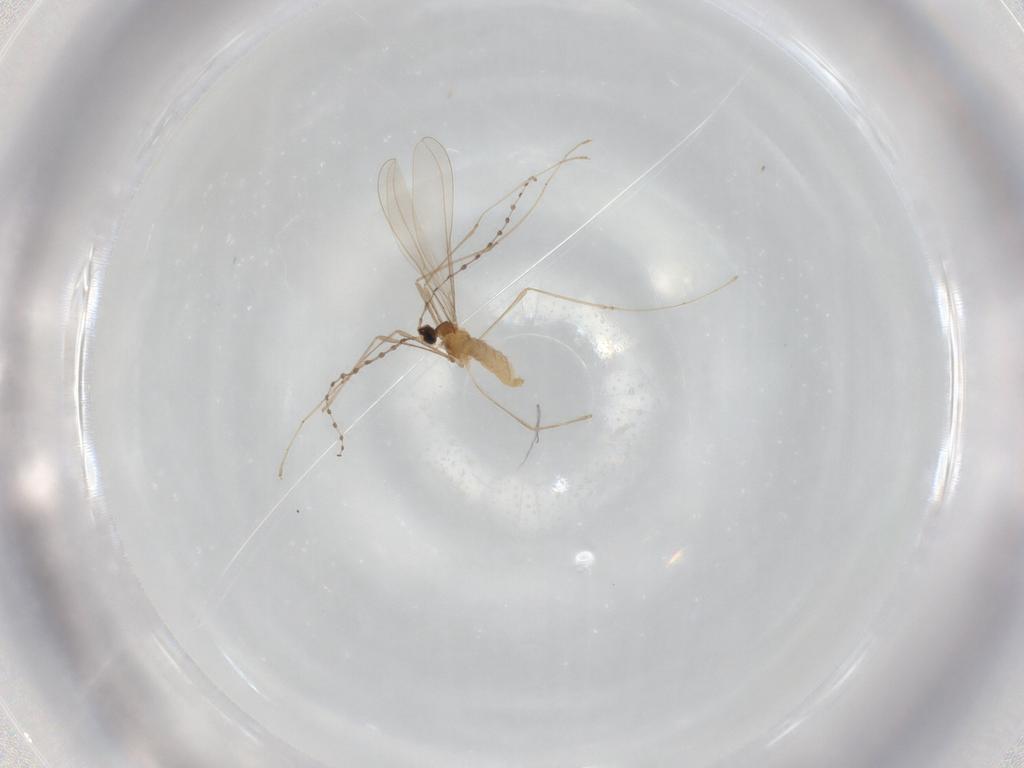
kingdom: Animalia
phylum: Arthropoda
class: Insecta
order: Diptera
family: Cecidomyiidae
